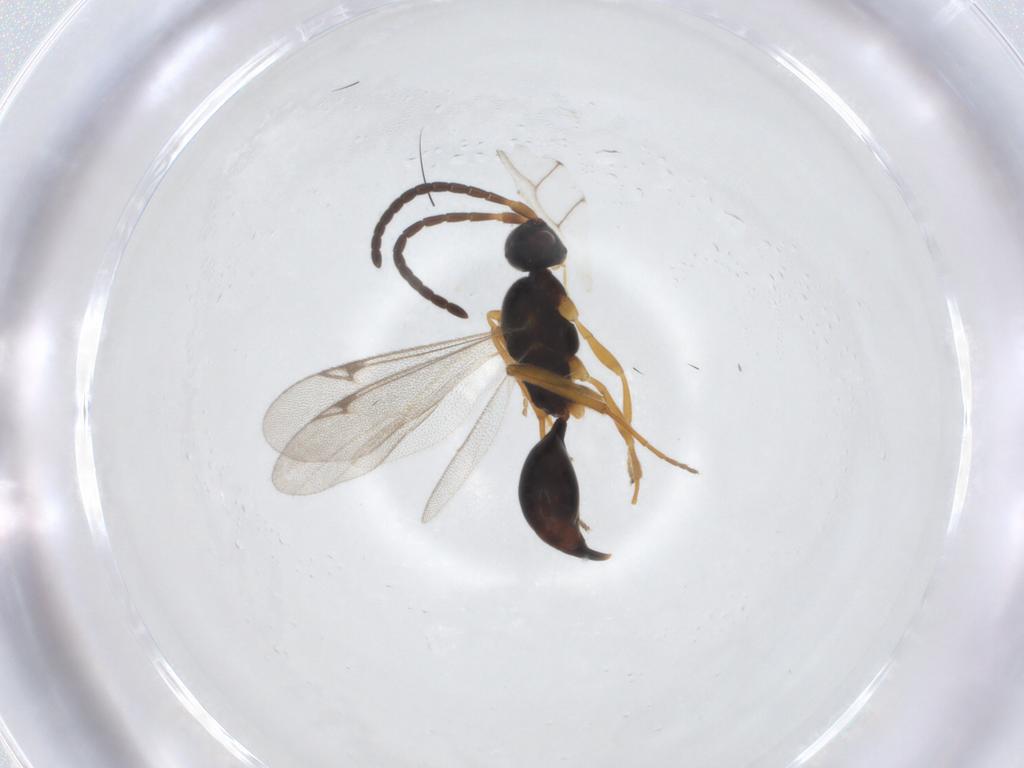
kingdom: Animalia
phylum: Arthropoda
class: Insecta
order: Hymenoptera
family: Proctotrupidae
